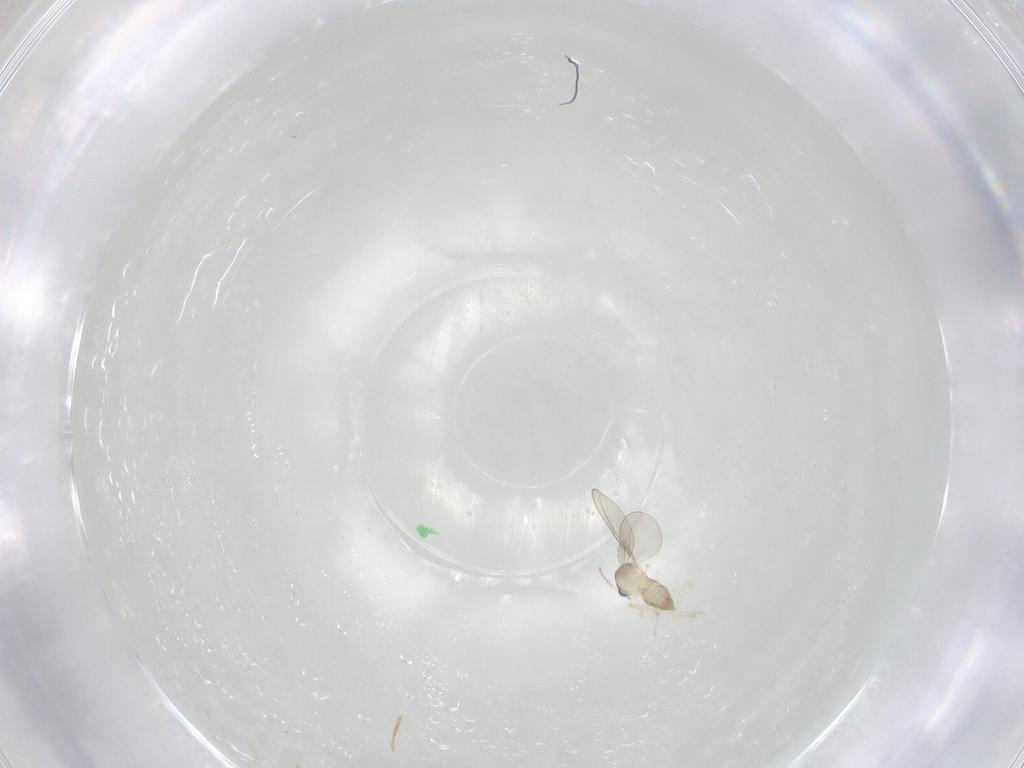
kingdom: Animalia
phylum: Arthropoda
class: Insecta
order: Diptera
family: Cecidomyiidae
